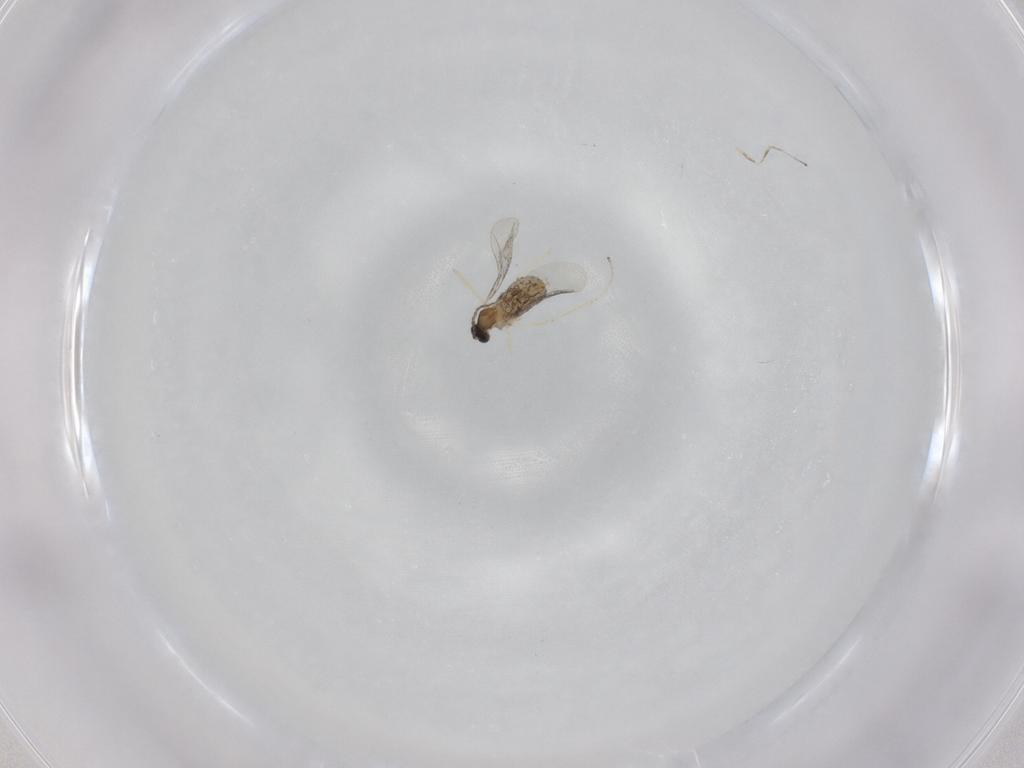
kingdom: Animalia
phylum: Arthropoda
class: Insecta
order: Diptera
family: Cecidomyiidae
